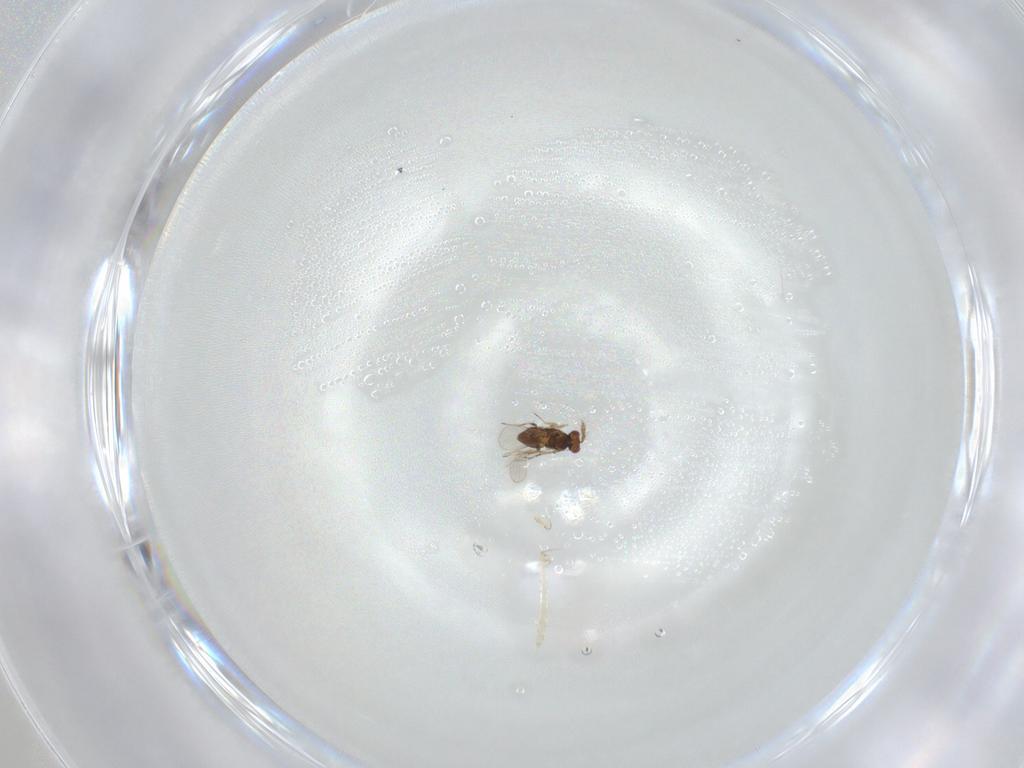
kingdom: Animalia
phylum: Arthropoda
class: Insecta
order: Hymenoptera
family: Trichogrammatidae
